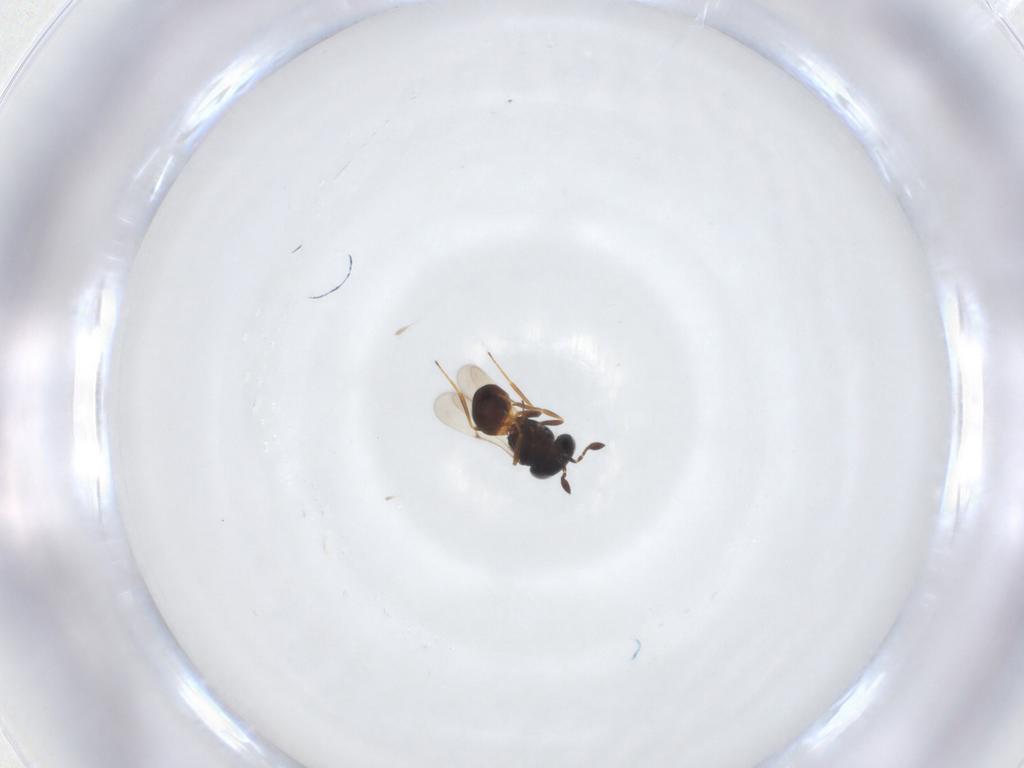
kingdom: Animalia
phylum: Arthropoda
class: Insecta
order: Hymenoptera
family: Scelionidae
